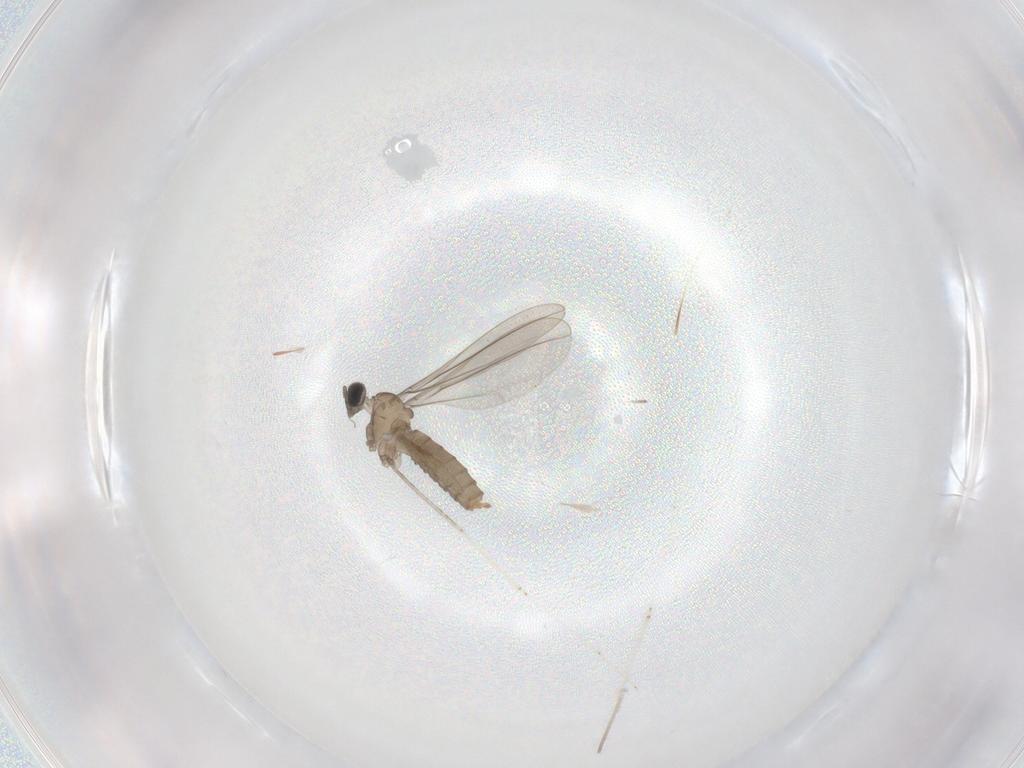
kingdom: Animalia
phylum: Arthropoda
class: Insecta
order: Diptera
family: Cecidomyiidae
